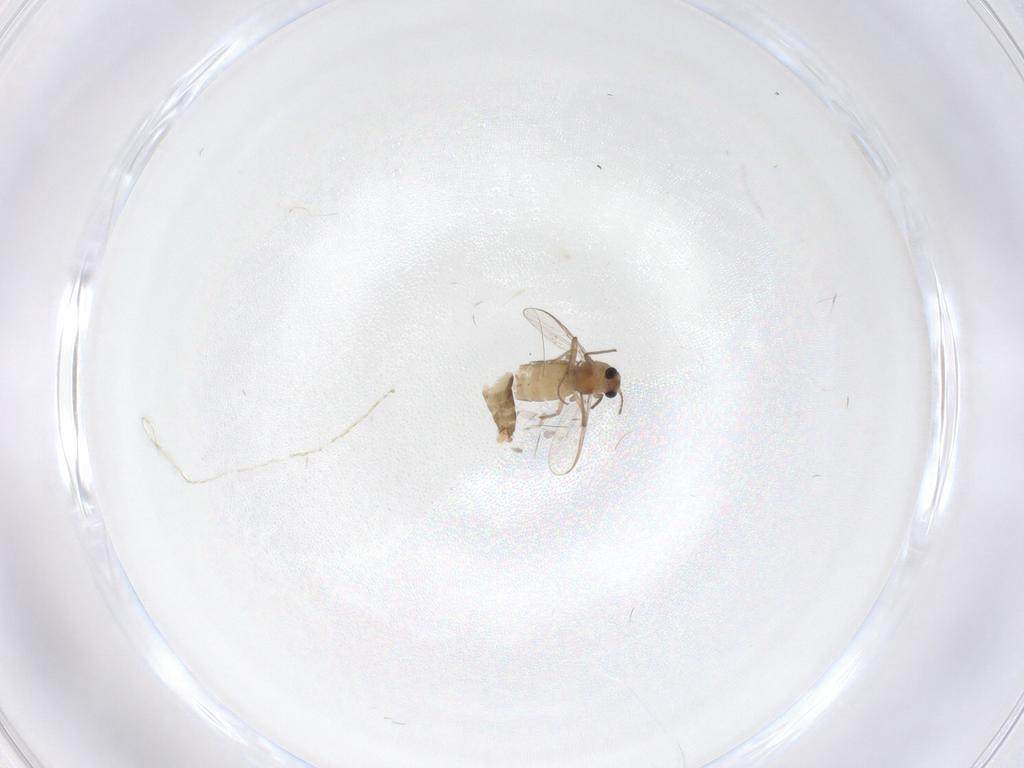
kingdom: Animalia
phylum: Arthropoda
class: Insecta
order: Diptera
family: Chironomidae
